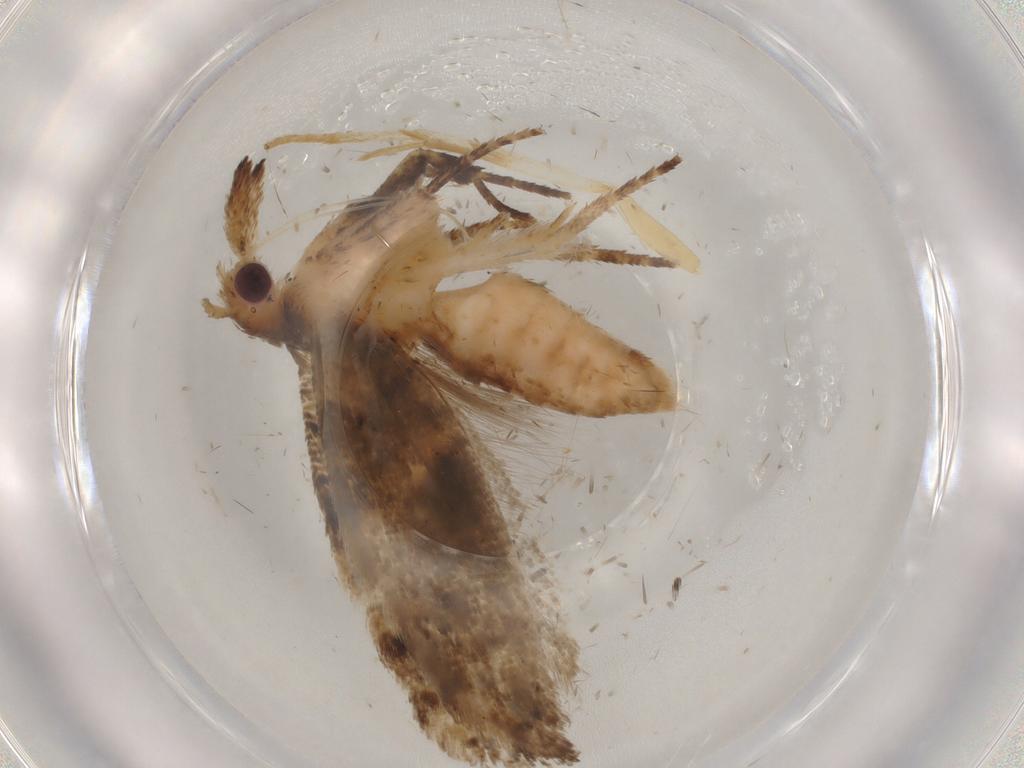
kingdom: Animalia
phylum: Arthropoda
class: Insecta
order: Lepidoptera
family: Ypsolophidae
